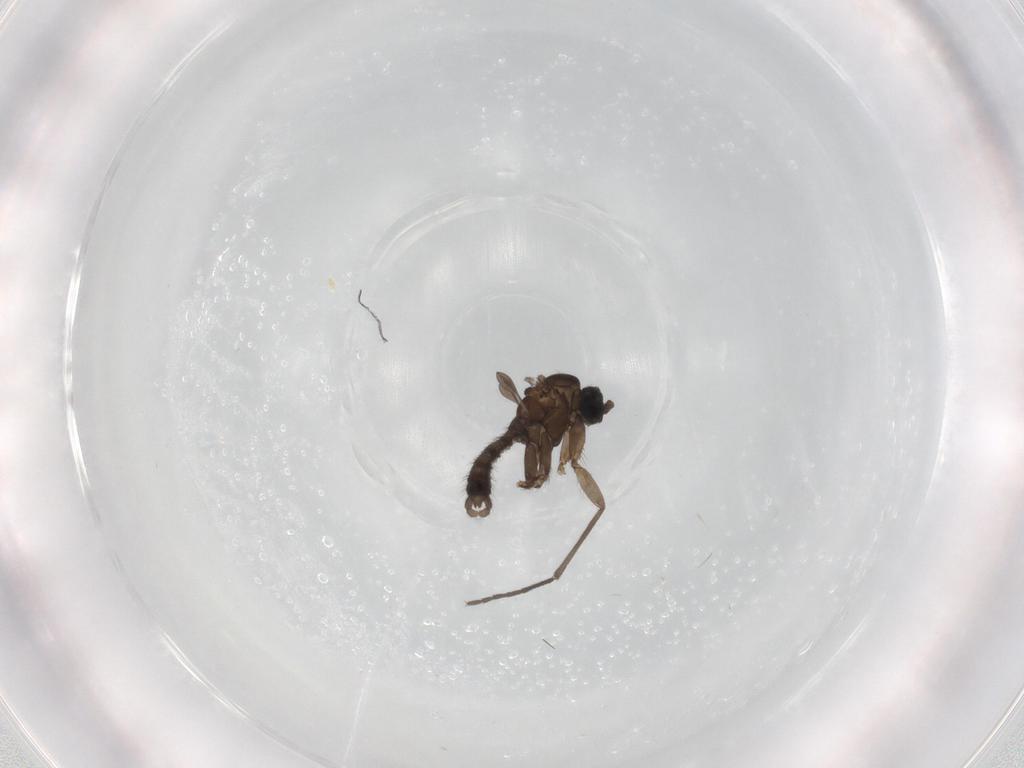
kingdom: Animalia
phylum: Arthropoda
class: Insecta
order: Diptera
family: Sciaridae
